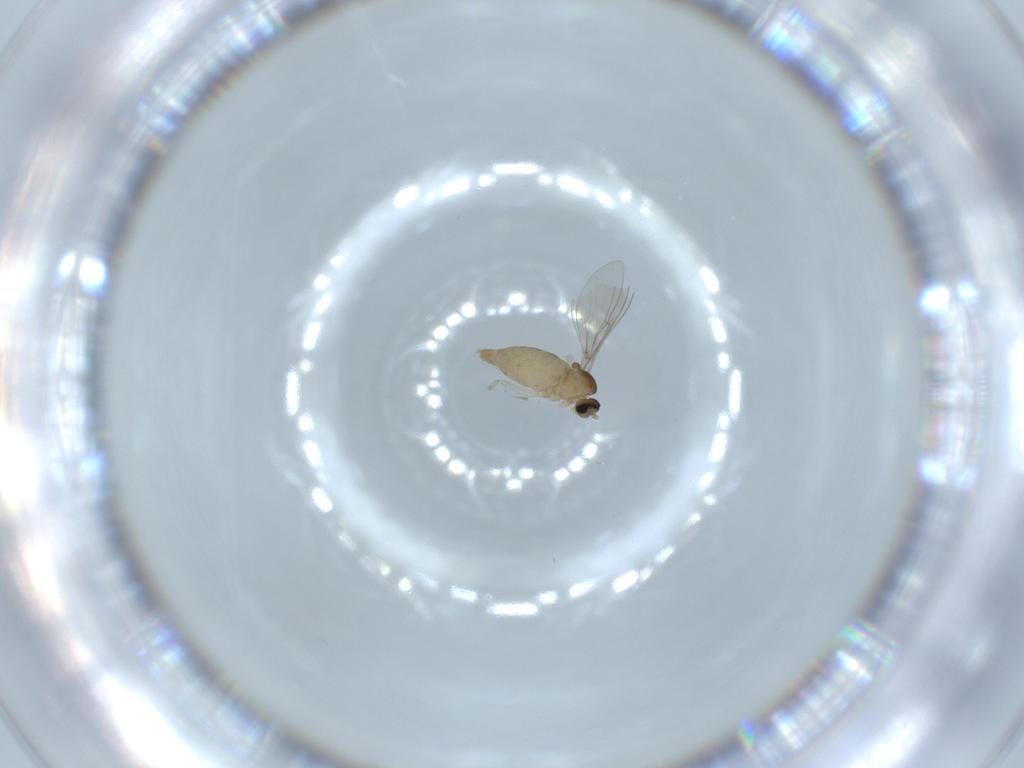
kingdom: Animalia
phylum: Arthropoda
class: Insecta
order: Diptera
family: Cecidomyiidae
